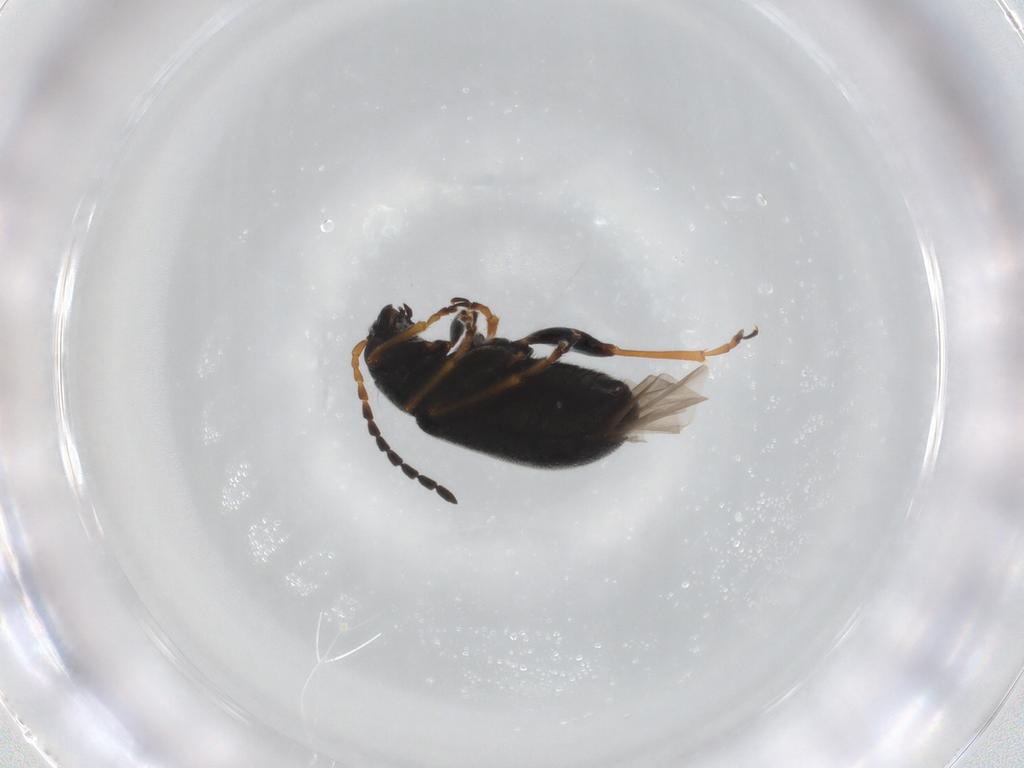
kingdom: Animalia
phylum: Arthropoda
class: Insecta
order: Coleoptera
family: Chrysomelidae
